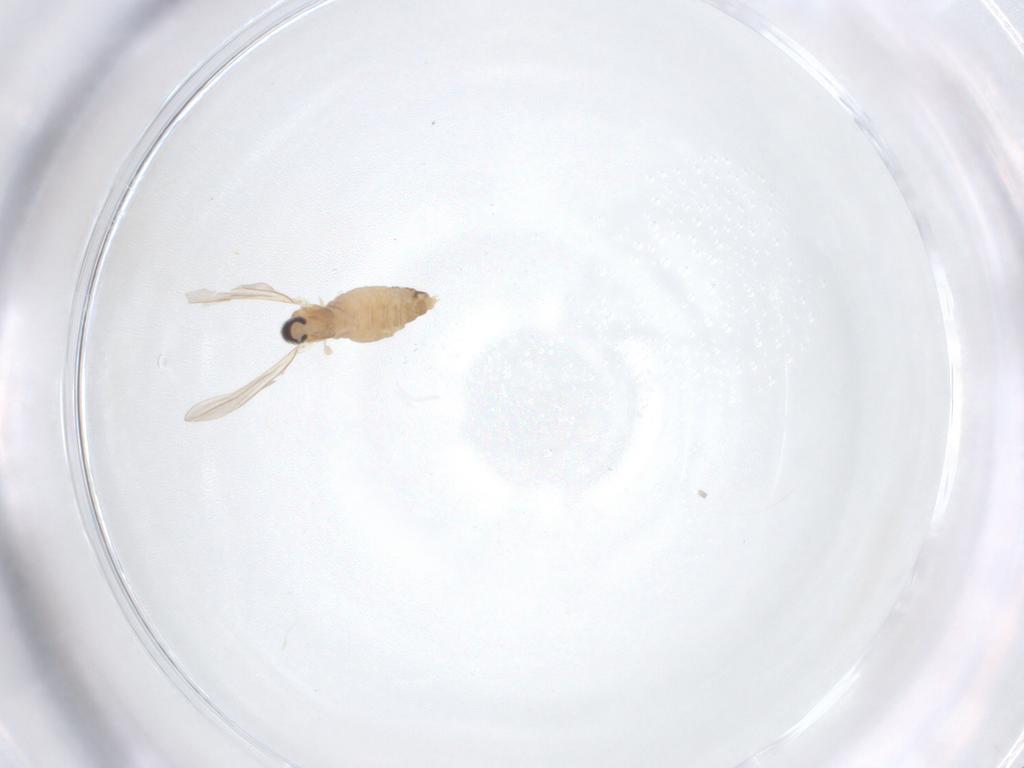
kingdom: Animalia
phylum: Arthropoda
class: Insecta
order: Diptera
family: Cecidomyiidae
